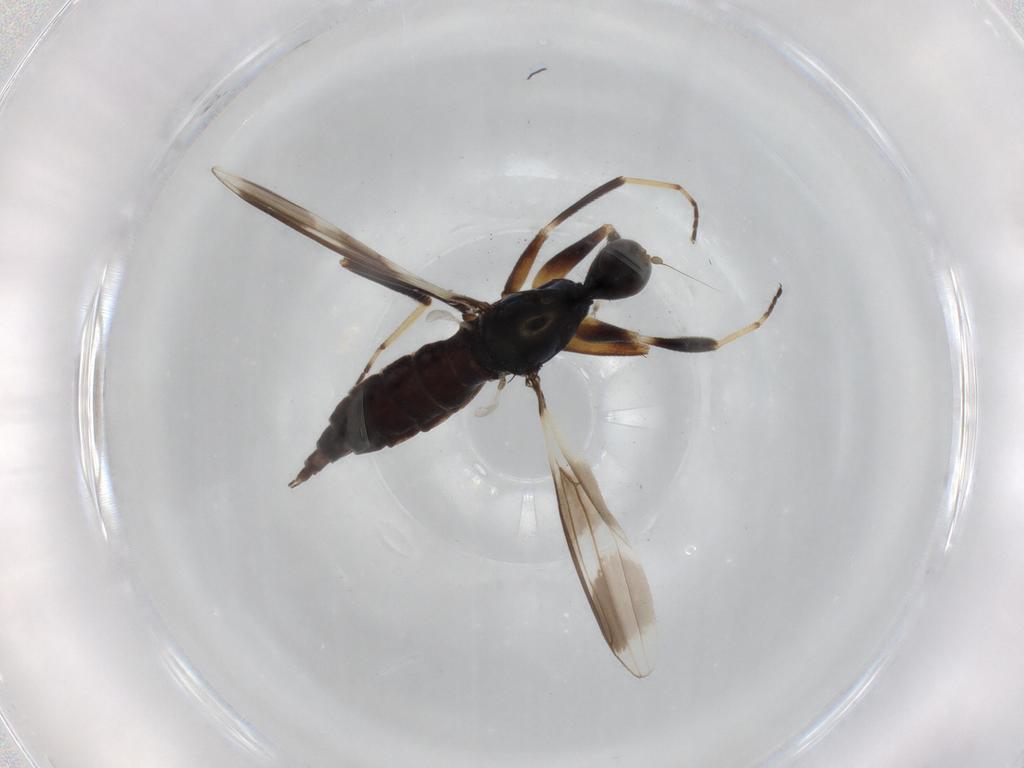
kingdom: Animalia
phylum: Arthropoda
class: Insecta
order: Diptera
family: Hybotidae
